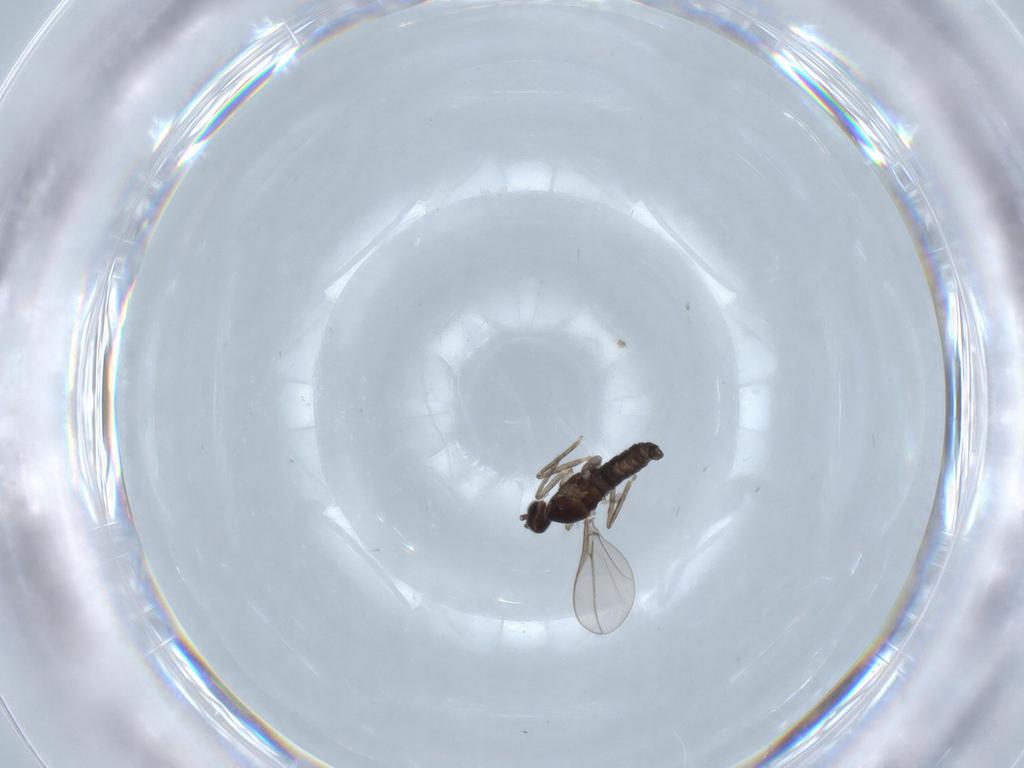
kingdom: Animalia
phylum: Arthropoda
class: Insecta
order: Diptera
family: Cecidomyiidae
